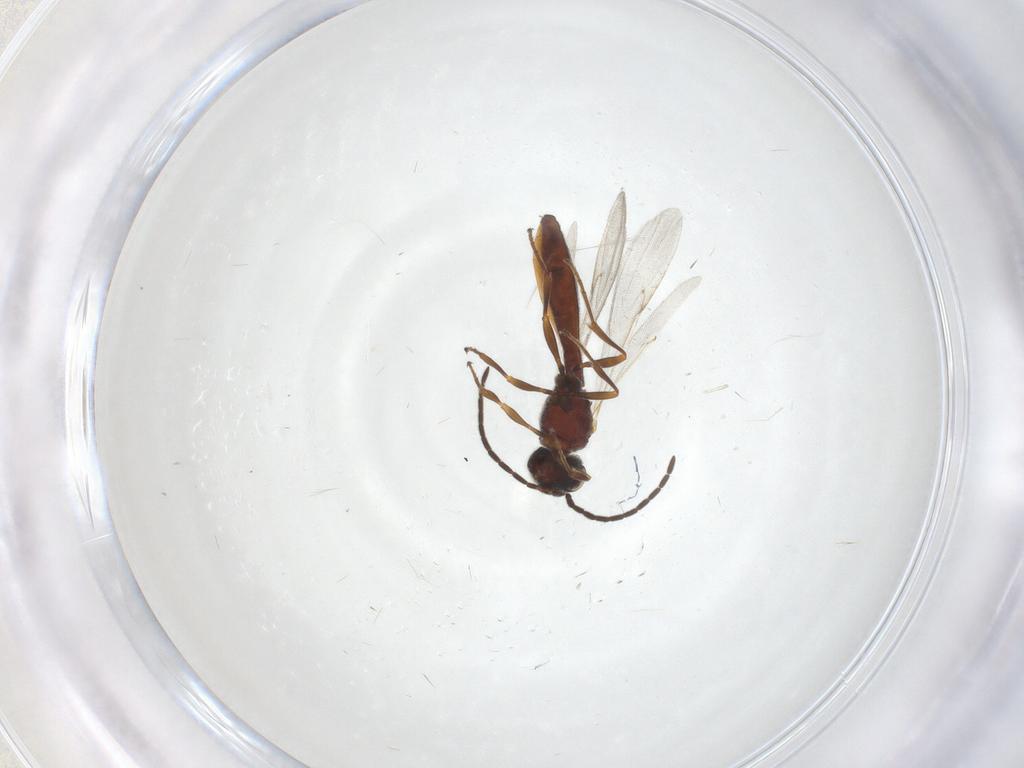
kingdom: Animalia
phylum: Arthropoda
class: Insecta
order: Hymenoptera
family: Scelionidae
